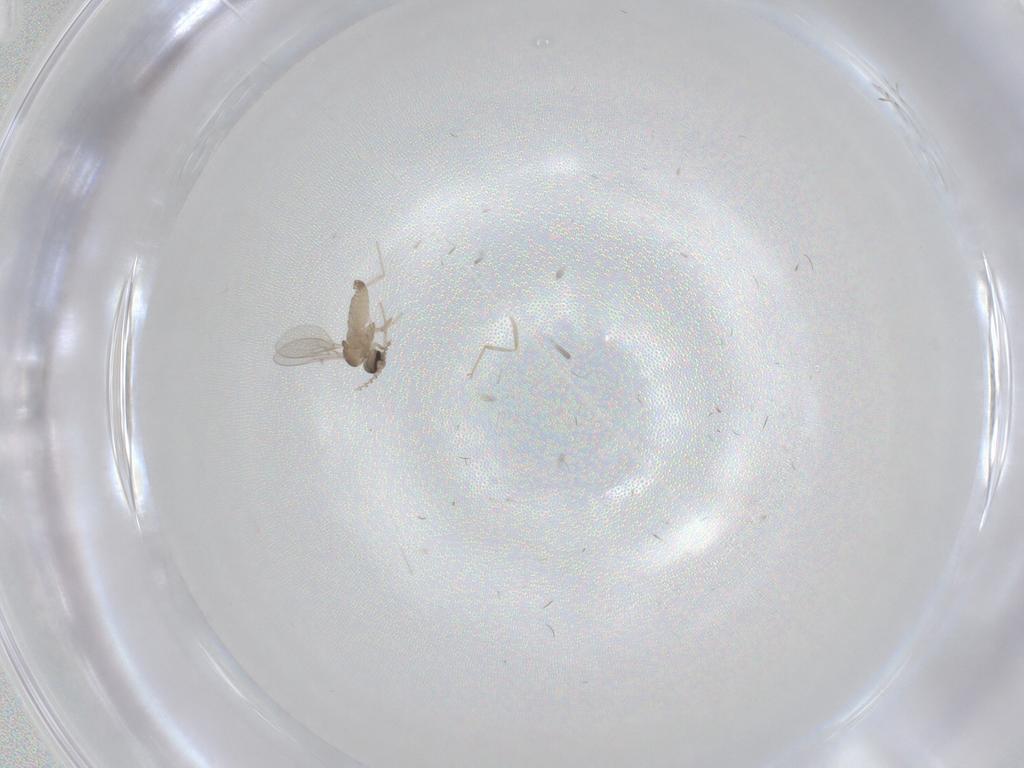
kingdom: Animalia
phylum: Arthropoda
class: Insecta
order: Diptera
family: Cecidomyiidae
